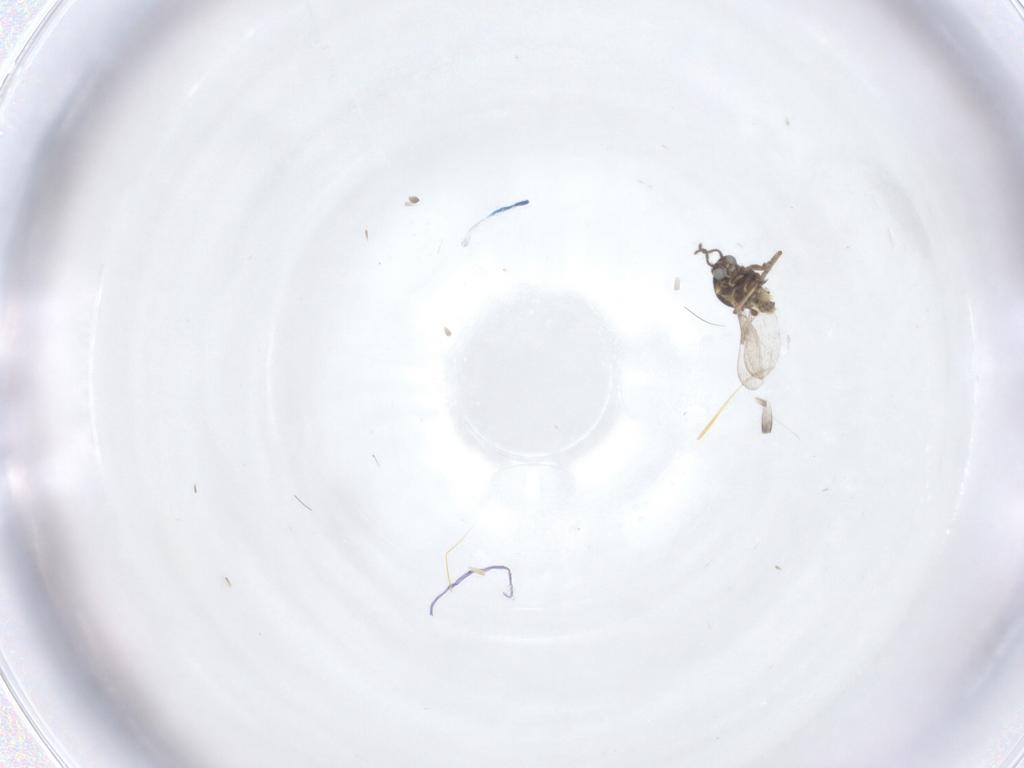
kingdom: Animalia
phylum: Arthropoda
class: Insecta
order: Diptera
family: Ceratopogonidae
